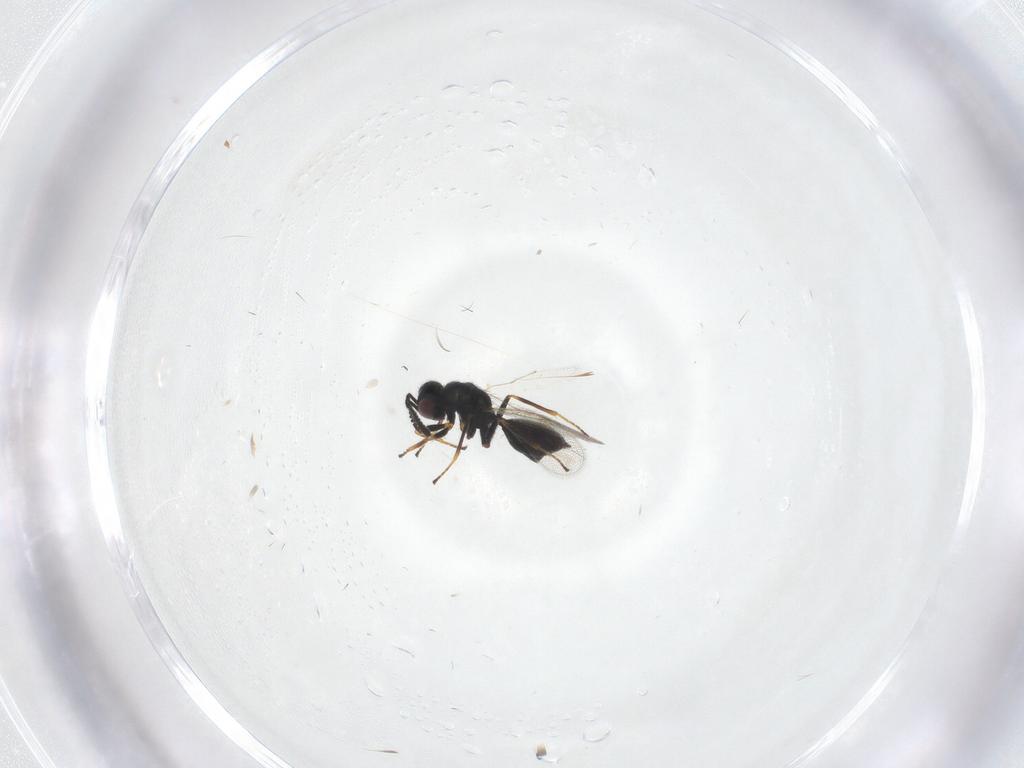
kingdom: Animalia
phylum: Arthropoda
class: Insecta
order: Hymenoptera
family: Chalcidoidea_incertae_sedis
